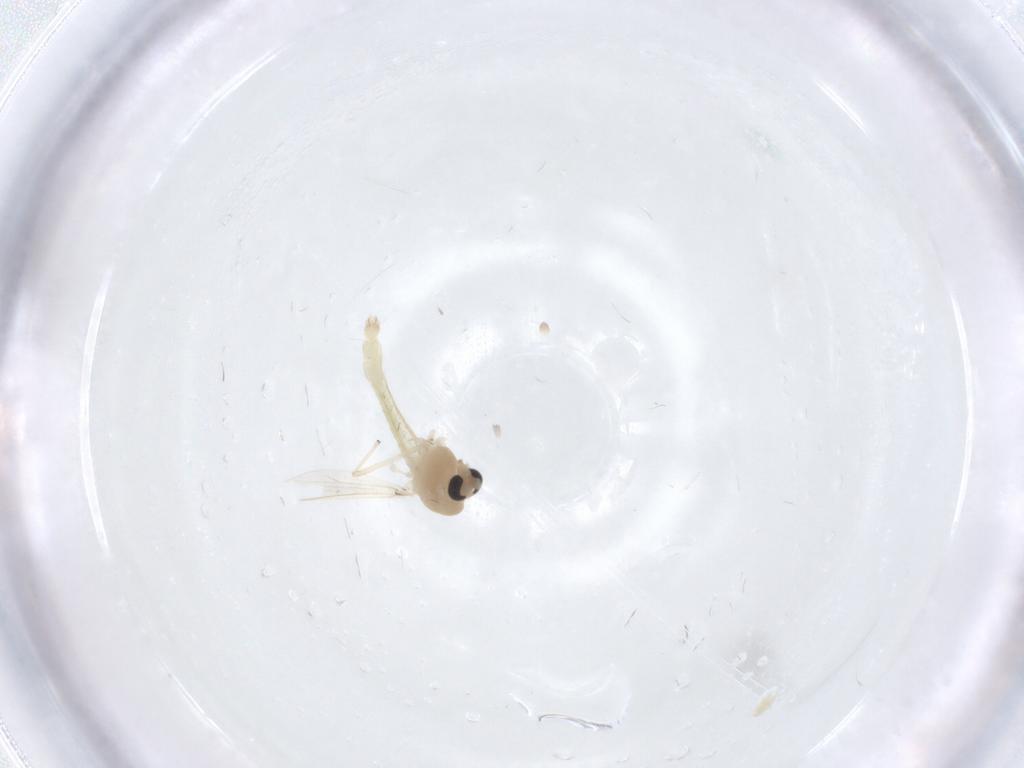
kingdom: Animalia
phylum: Arthropoda
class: Insecta
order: Diptera
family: Chironomidae
